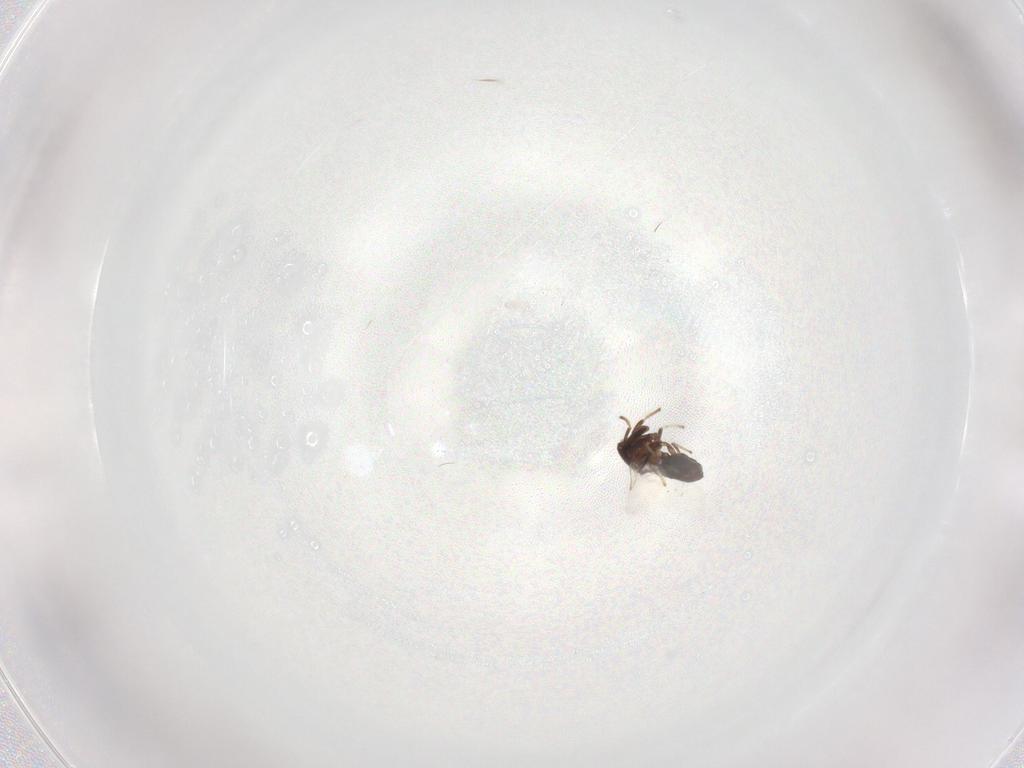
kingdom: Animalia
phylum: Arthropoda
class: Insecta
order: Diptera
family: Scatopsidae
